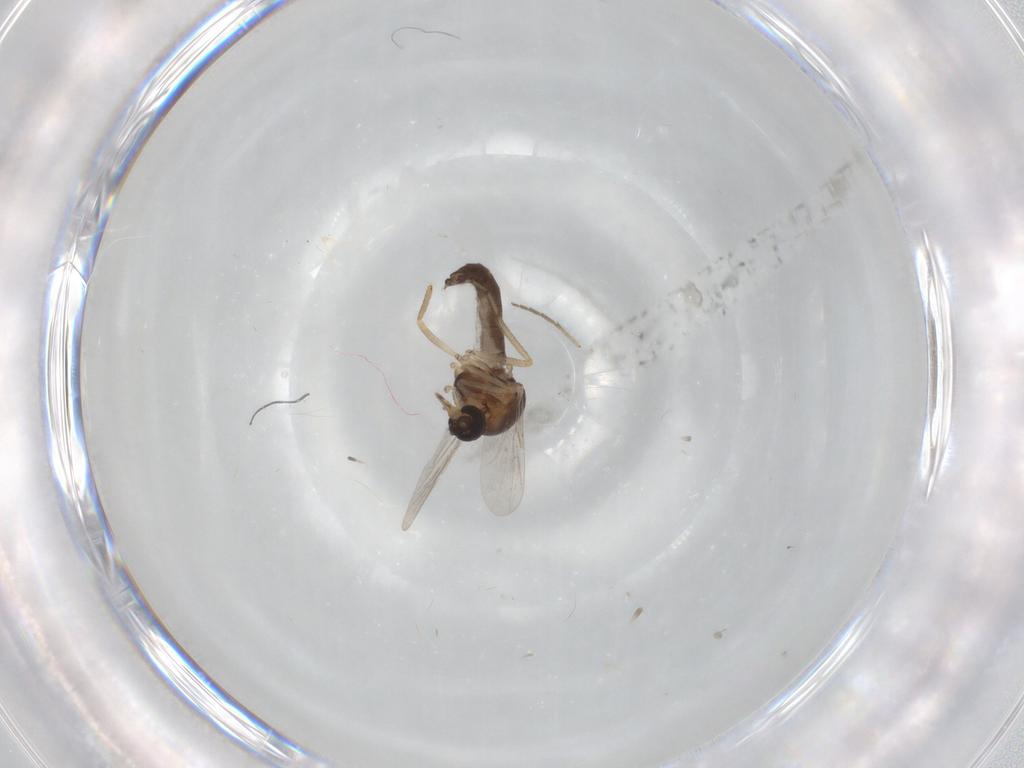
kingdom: Animalia
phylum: Arthropoda
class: Insecta
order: Diptera
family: Ceratopogonidae
